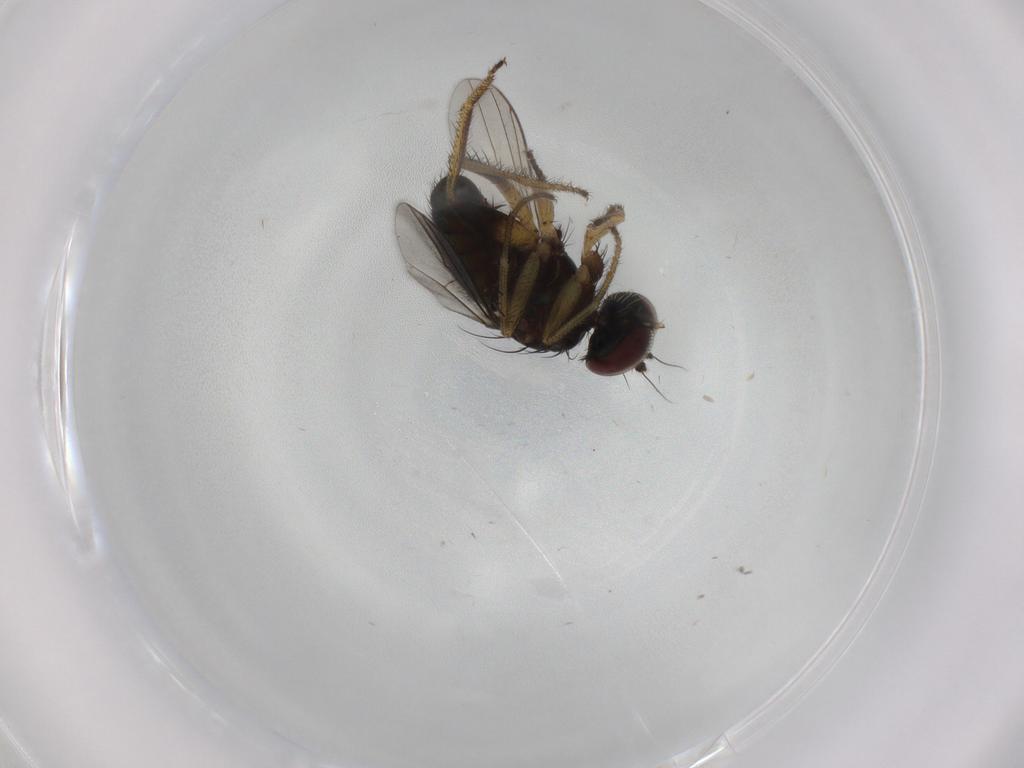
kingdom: Animalia
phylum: Arthropoda
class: Insecta
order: Diptera
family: Dolichopodidae
